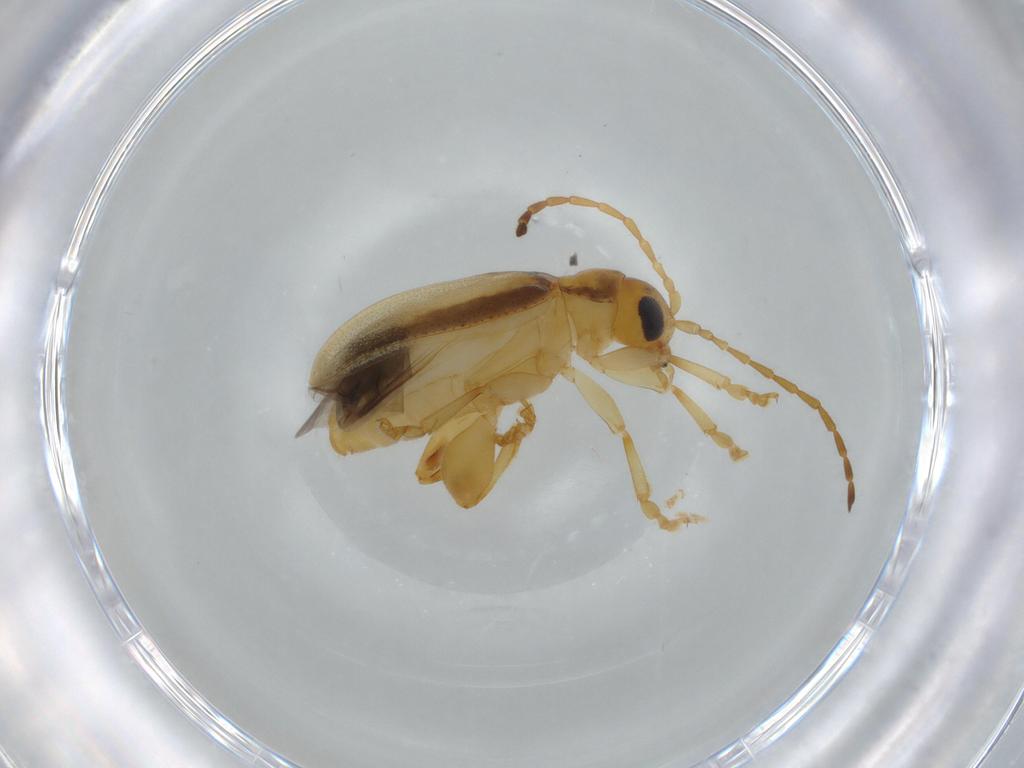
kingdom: Animalia
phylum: Arthropoda
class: Insecta
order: Coleoptera
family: Chrysomelidae
